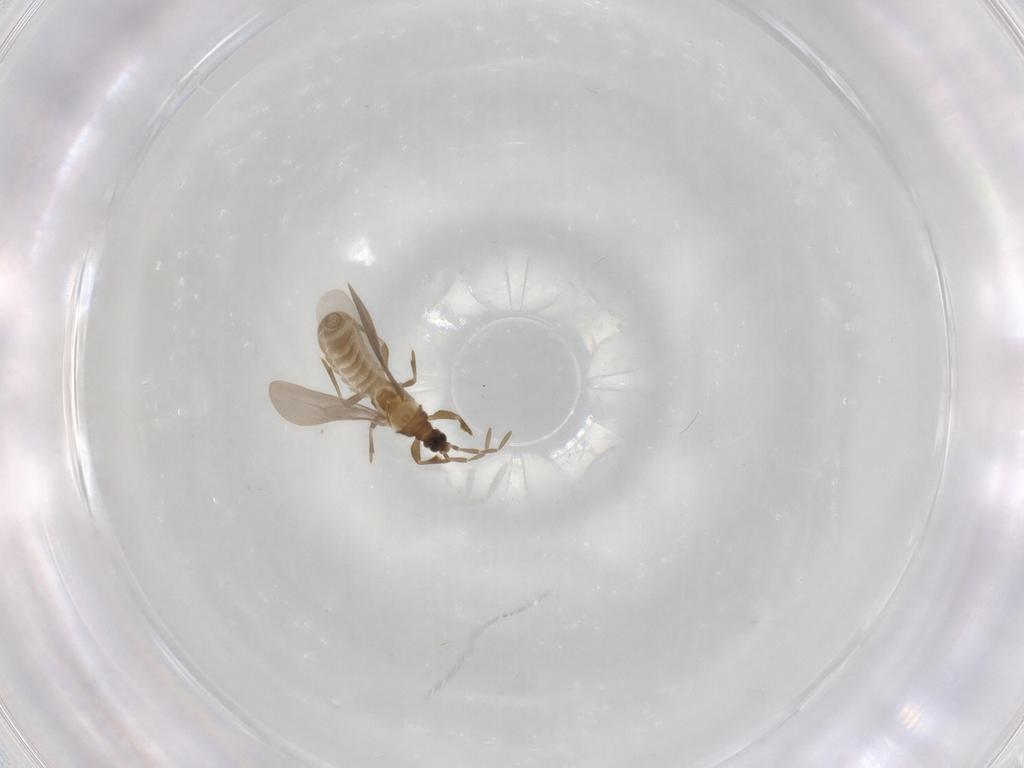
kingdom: Animalia
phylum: Arthropoda
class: Insecta
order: Hemiptera
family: Enicocephalidae
